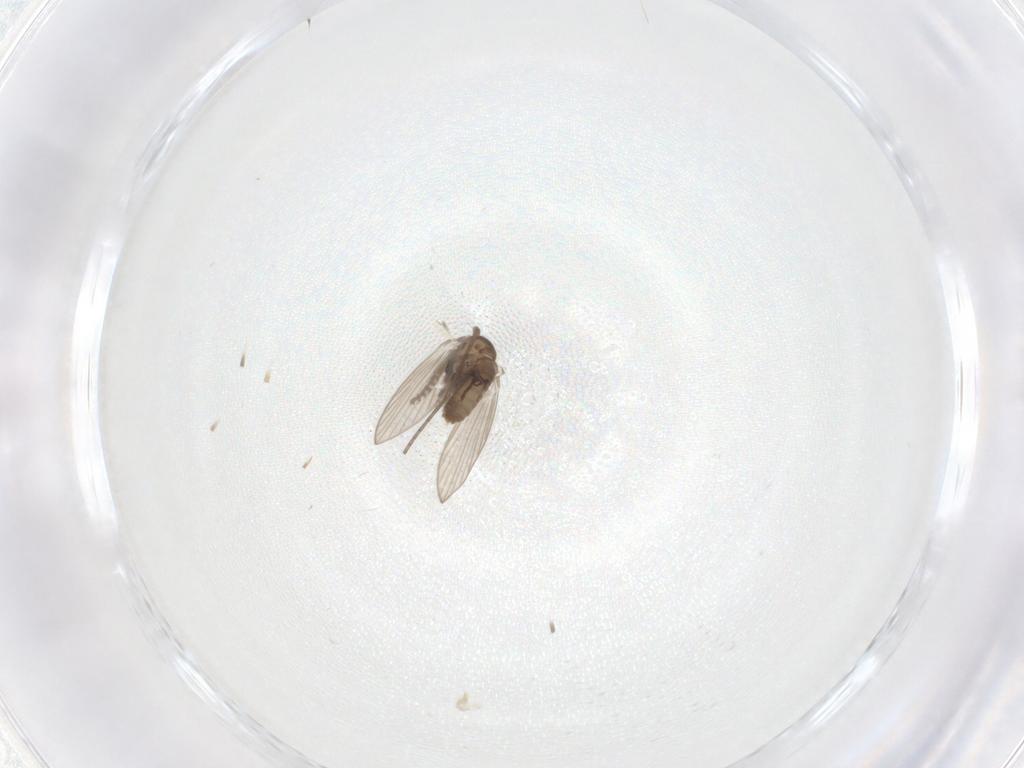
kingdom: Animalia
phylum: Arthropoda
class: Insecta
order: Diptera
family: Psychodidae
